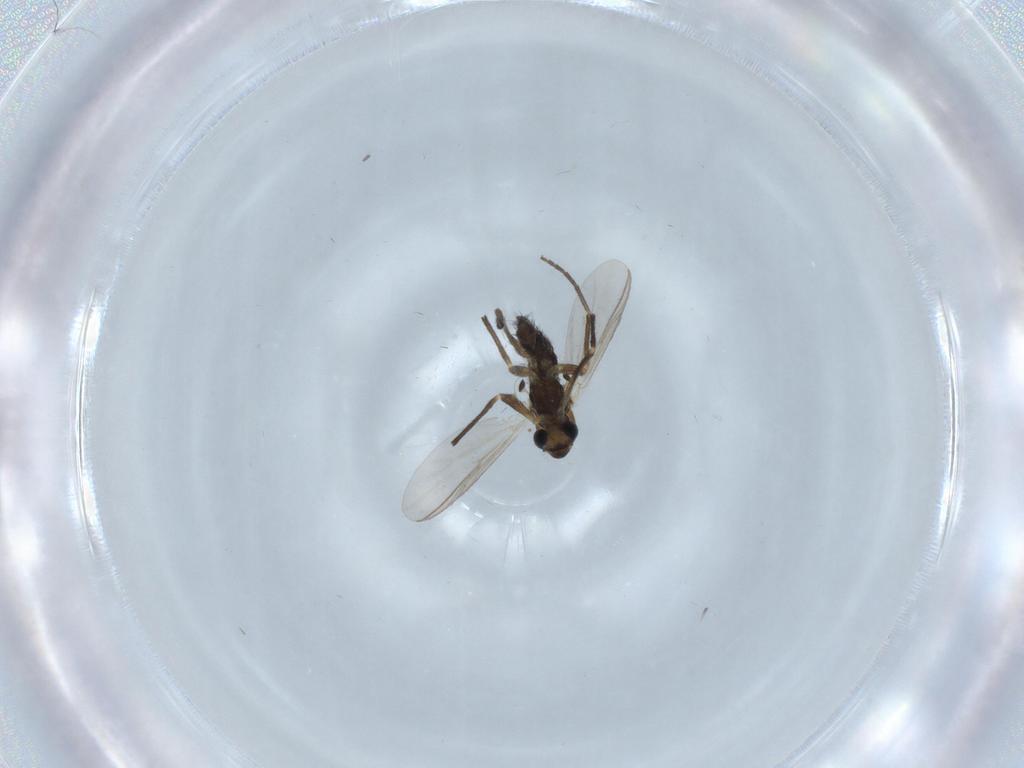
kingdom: Animalia
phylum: Arthropoda
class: Insecta
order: Diptera
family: Chironomidae
